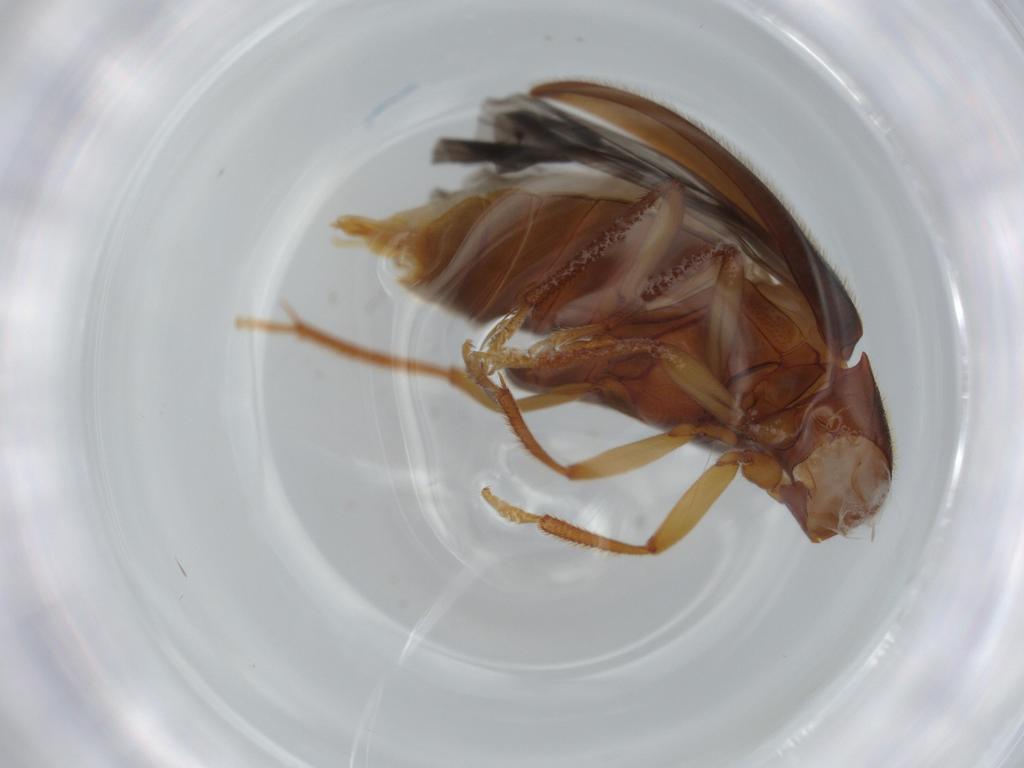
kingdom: Animalia
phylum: Arthropoda
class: Insecta
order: Coleoptera
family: Ptilodactylidae
